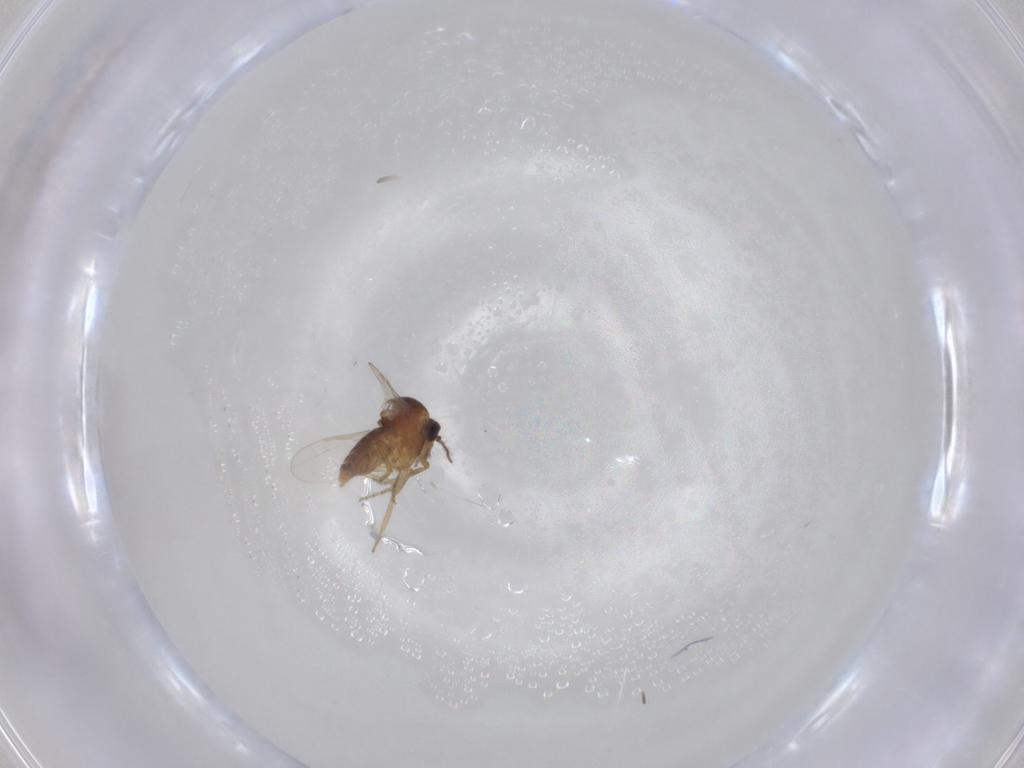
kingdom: Animalia
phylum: Arthropoda
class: Insecta
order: Diptera
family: Ceratopogonidae
